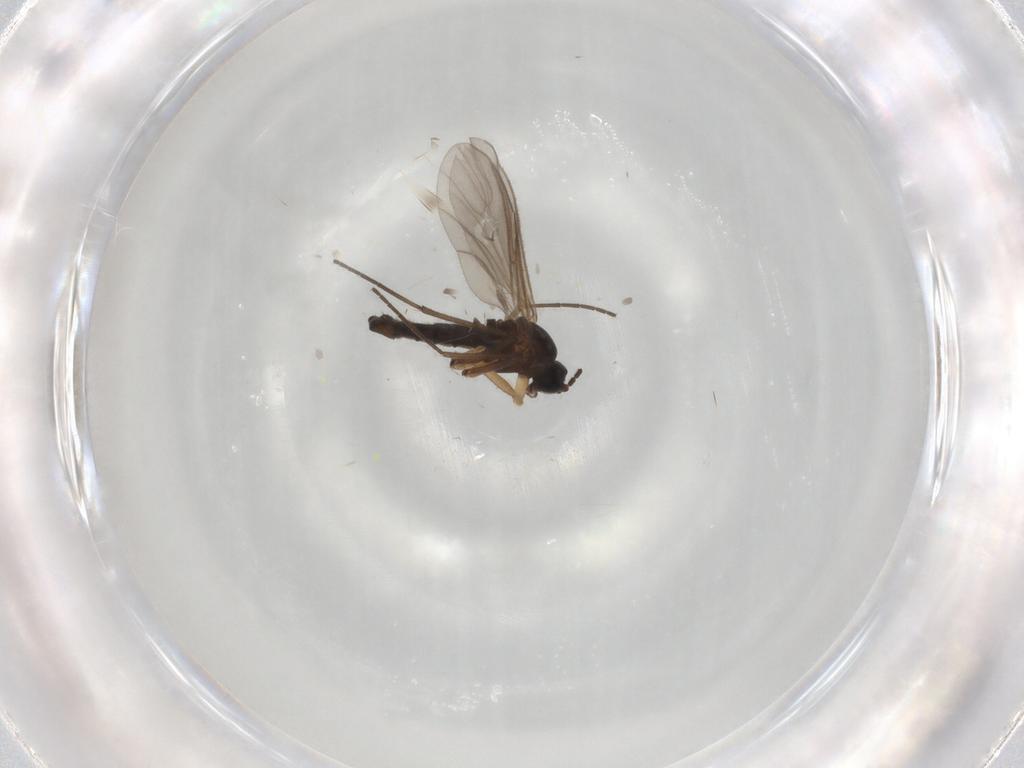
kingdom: Animalia
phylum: Arthropoda
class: Insecta
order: Diptera
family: Sciaridae
